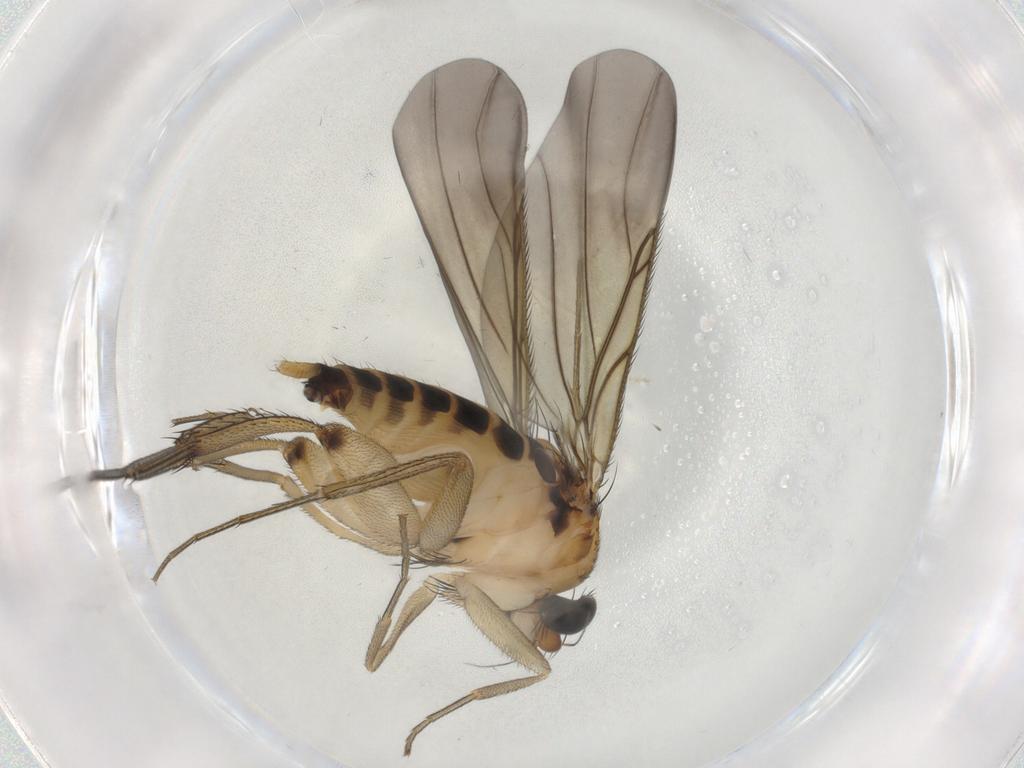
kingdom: Animalia
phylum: Arthropoda
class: Insecta
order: Diptera
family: Phoridae
